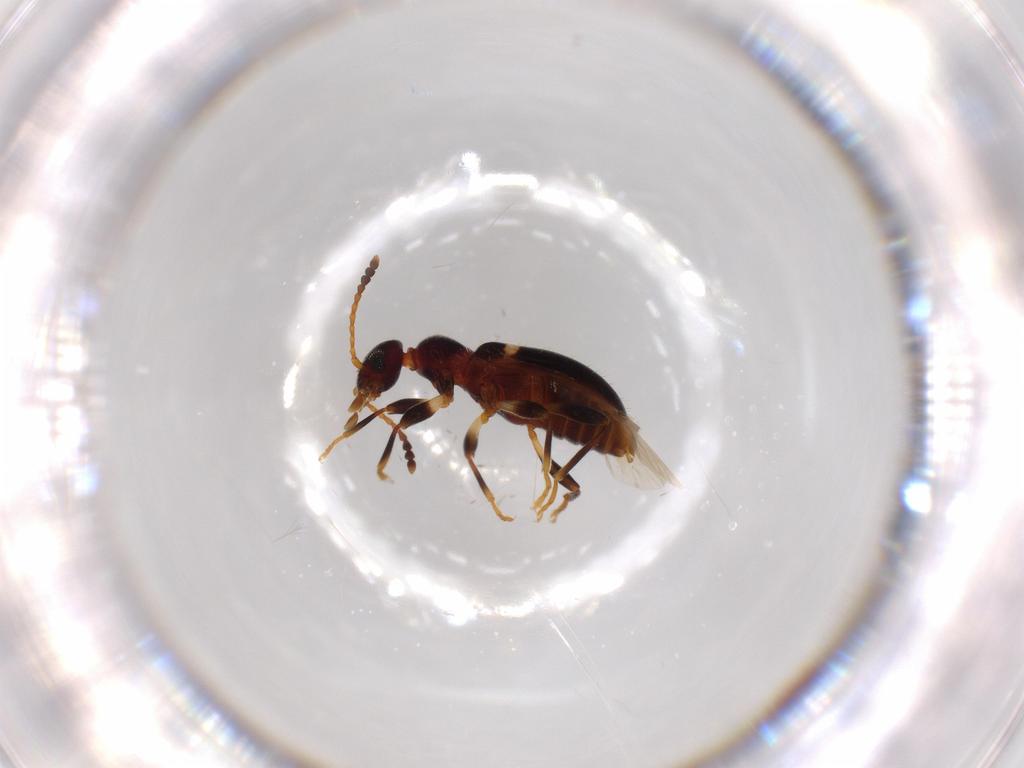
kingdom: Animalia
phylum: Arthropoda
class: Insecta
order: Coleoptera
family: Anthicidae
